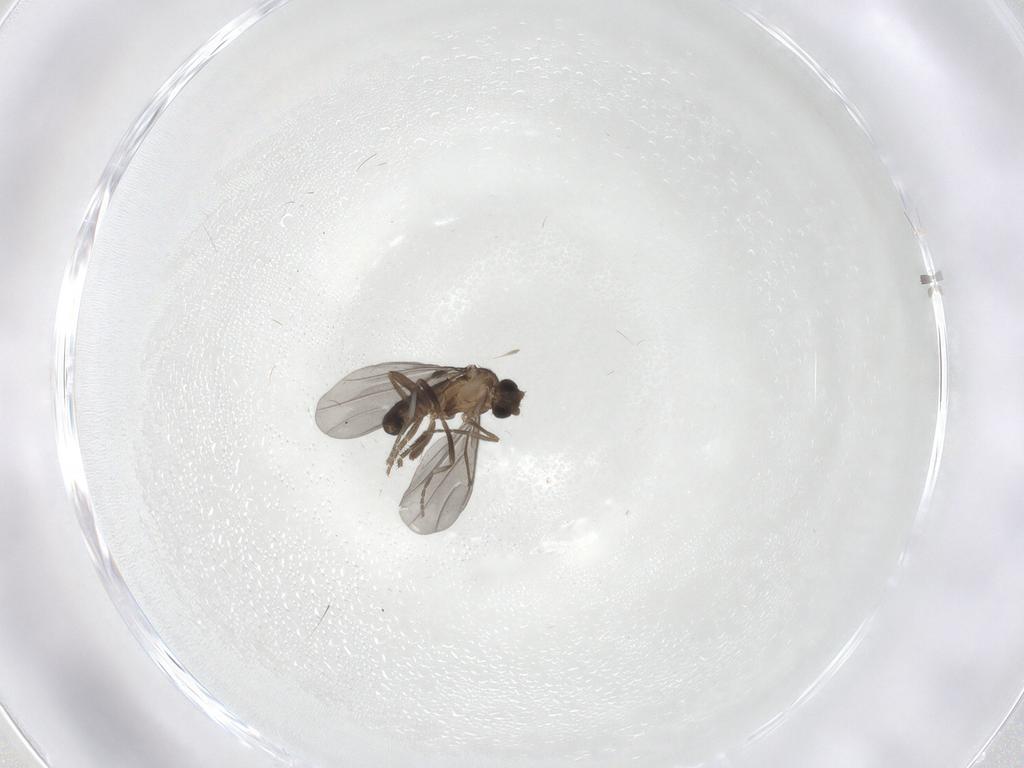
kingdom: Animalia
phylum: Arthropoda
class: Insecta
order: Diptera
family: Phoridae
